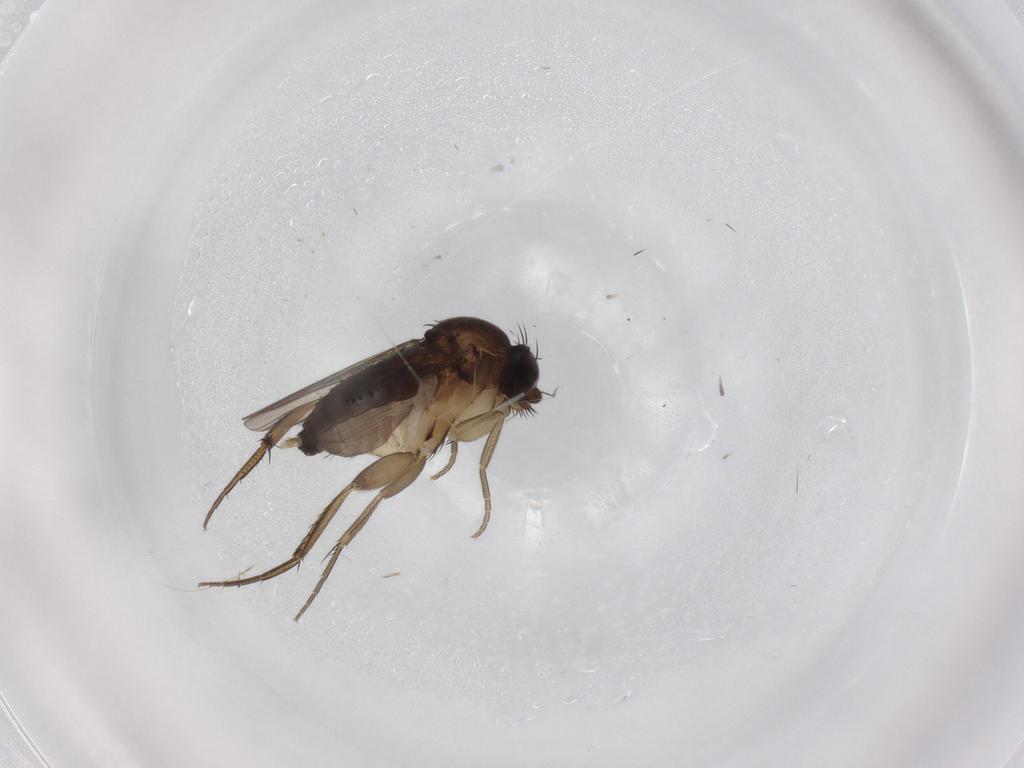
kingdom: Animalia
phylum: Arthropoda
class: Insecta
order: Diptera
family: Phoridae
